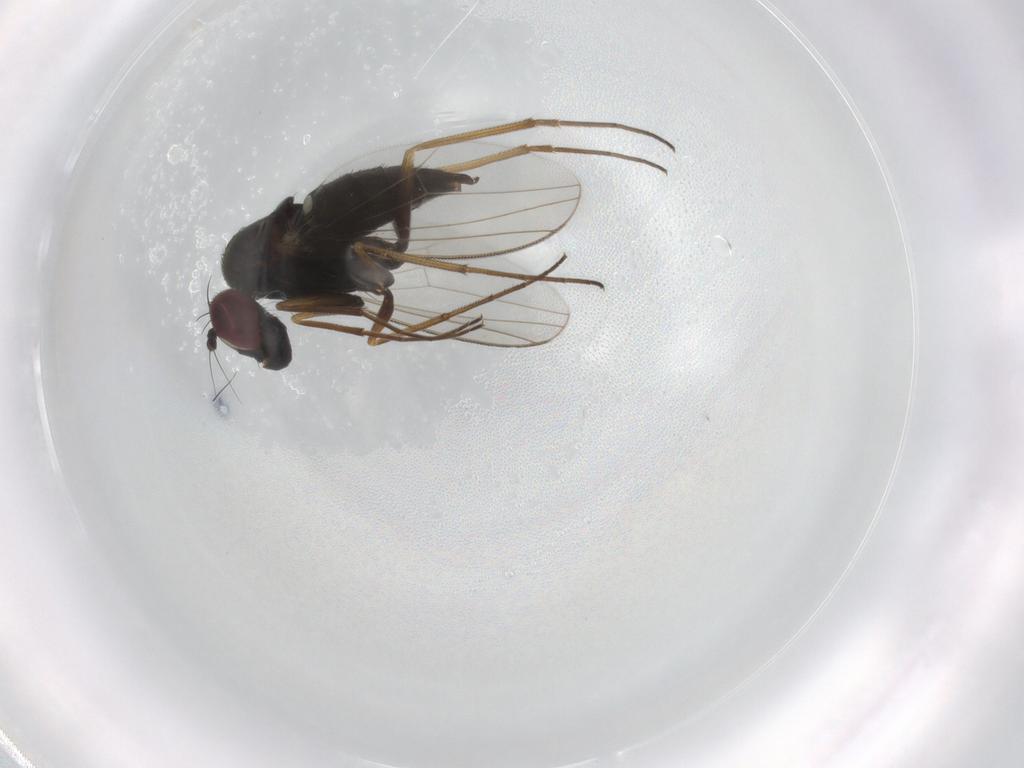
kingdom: Animalia
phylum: Arthropoda
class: Insecta
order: Diptera
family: Dolichopodidae
